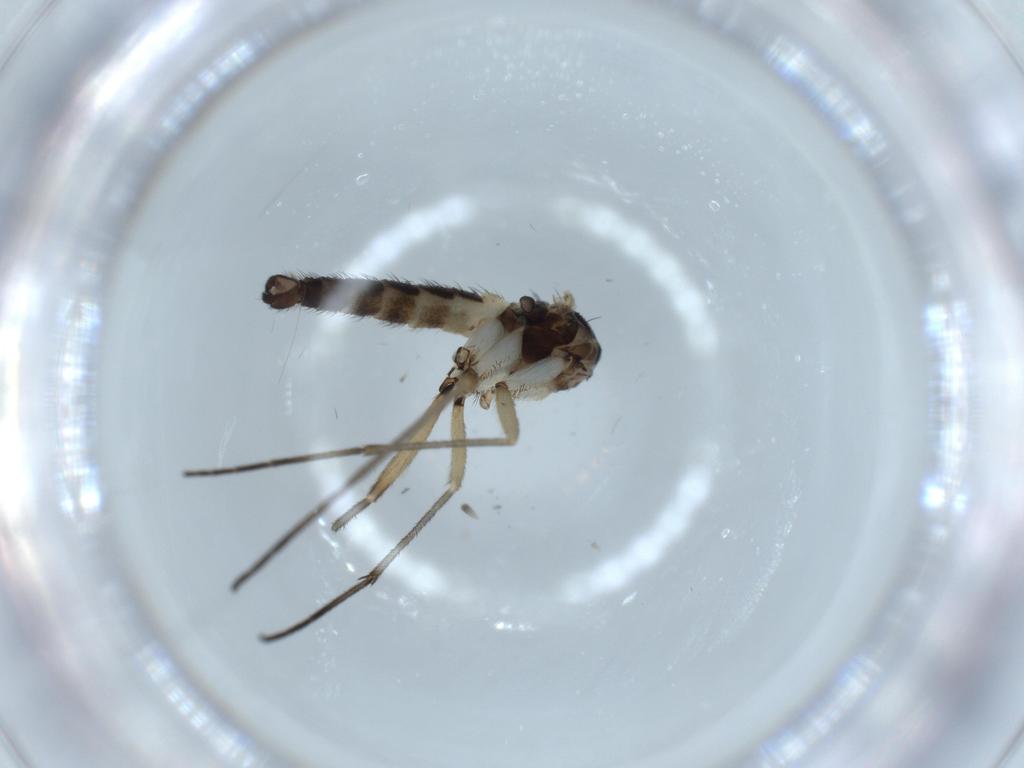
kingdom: Animalia
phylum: Arthropoda
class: Insecta
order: Diptera
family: Sciaridae
